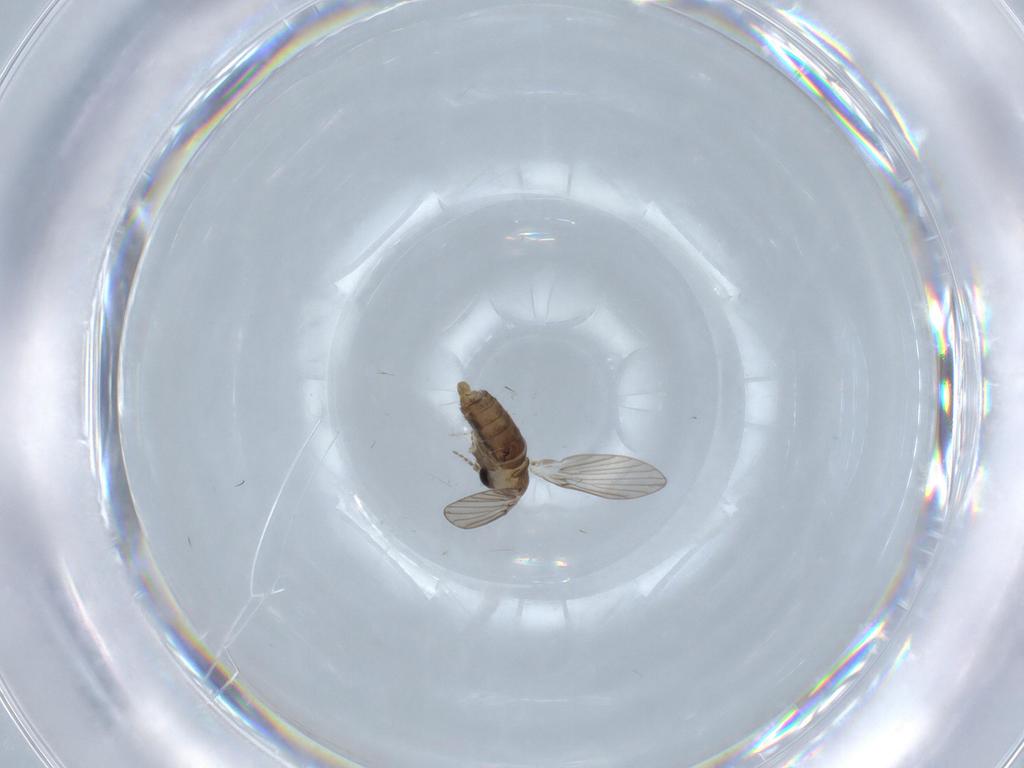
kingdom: Animalia
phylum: Arthropoda
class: Insecta
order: Diptera
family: Psychodidae
